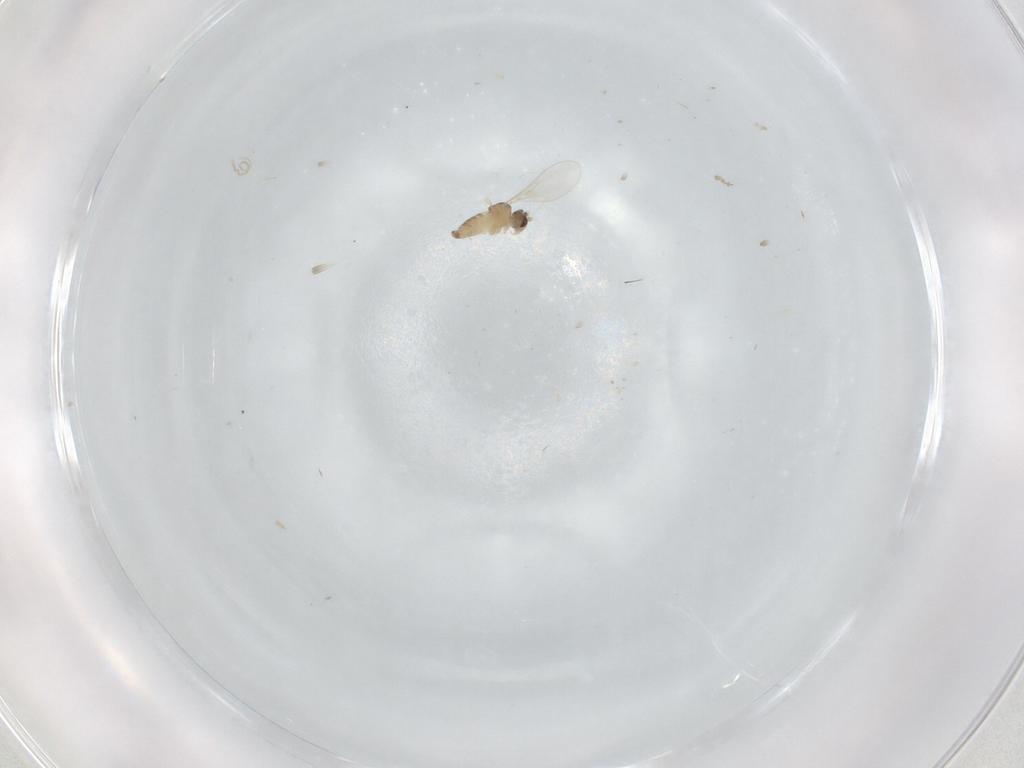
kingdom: Animalia
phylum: Arthropoda
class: Insecta
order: Diptera
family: Cecidomyiidae
